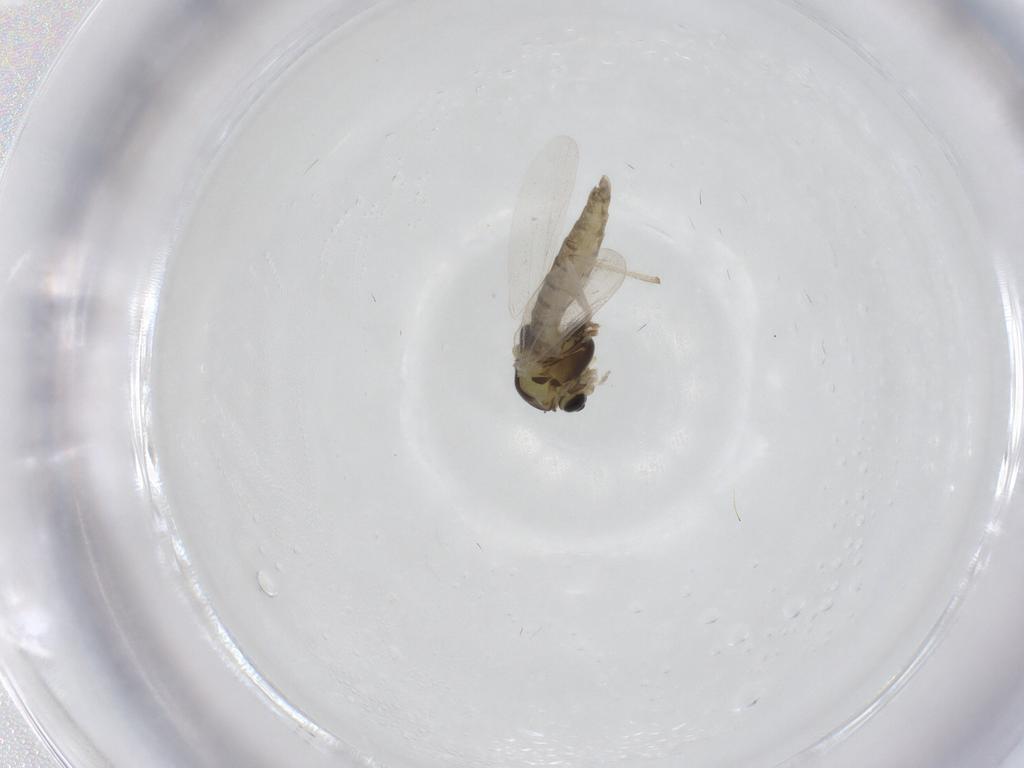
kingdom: Animalia
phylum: Arthropoda
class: Insecta
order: Diptera
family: Chironomidae
